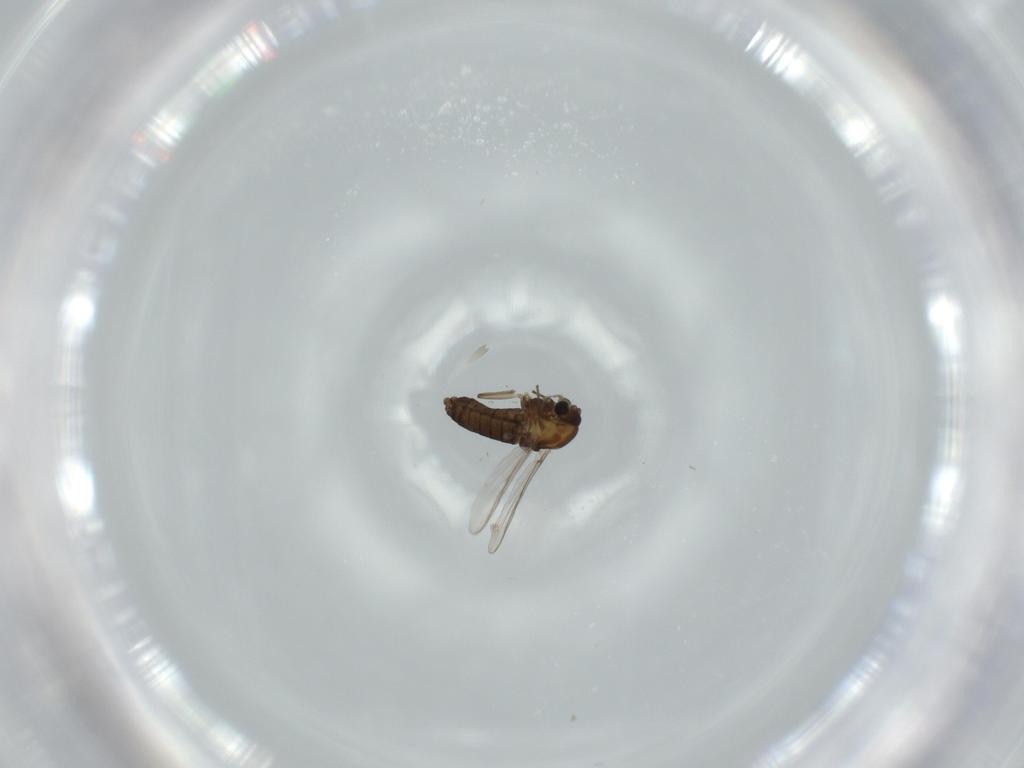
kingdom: Animalia
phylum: Arthropoda
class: Insecta
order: Diptera
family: Chironomidae
